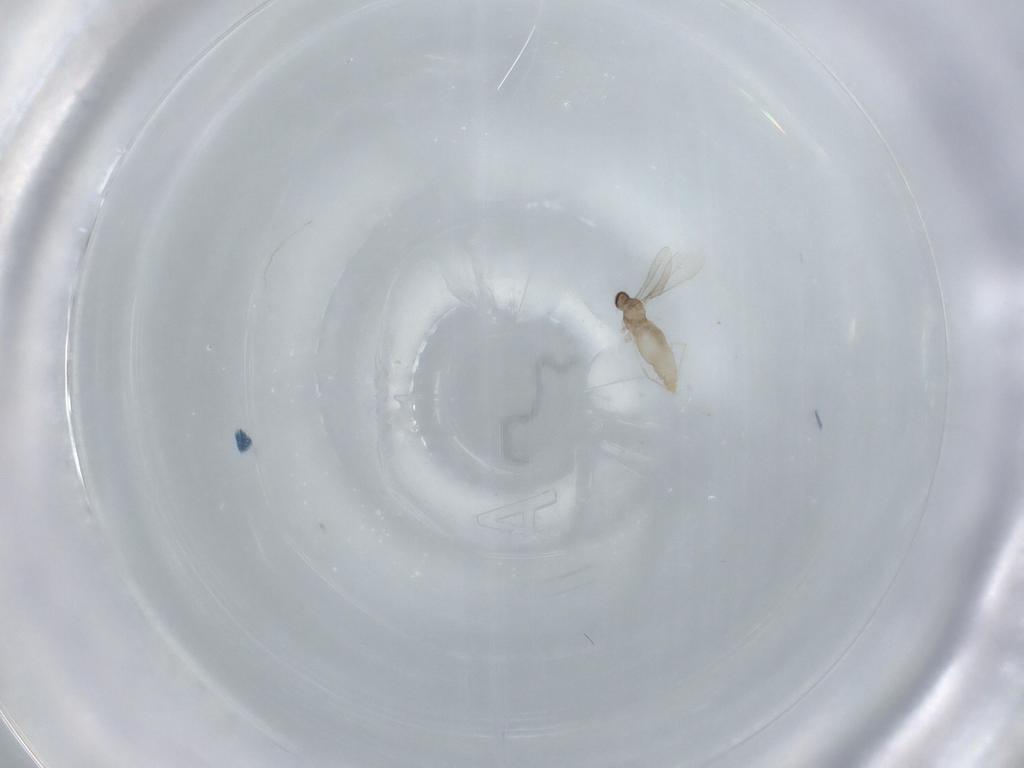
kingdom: Animalia
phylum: Arthropoda
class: Insecta
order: Diptera
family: Cecidomyiidae
